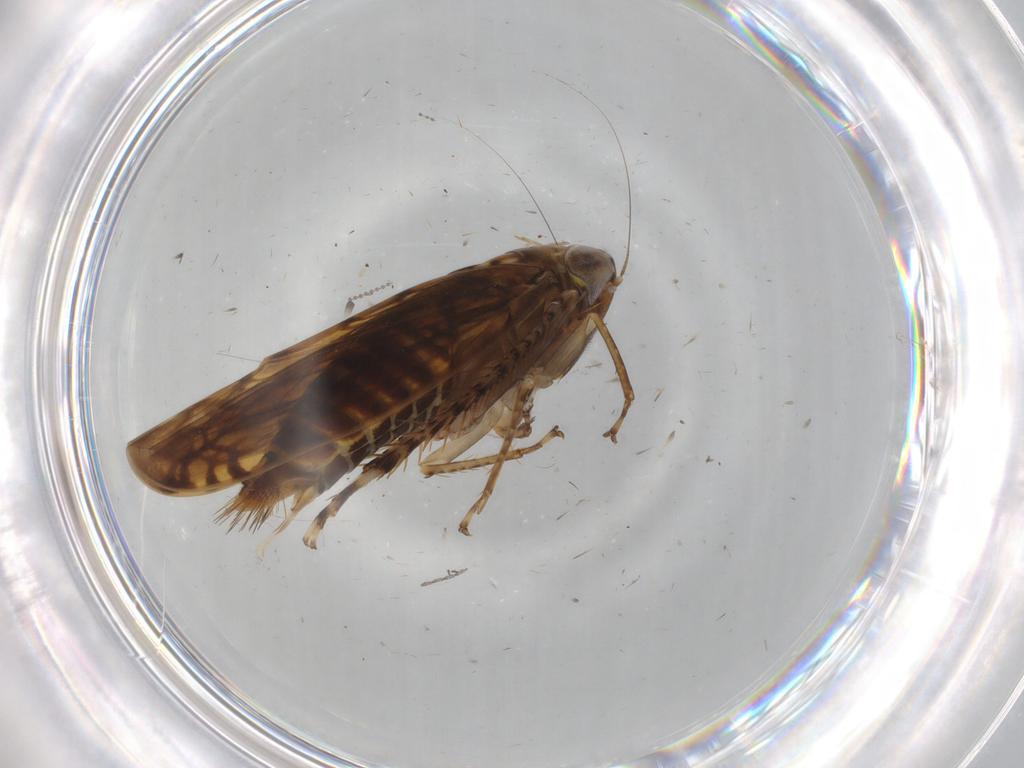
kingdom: Animalia
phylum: Arthropoda
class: Insecta
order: Hemiptera
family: Cicadellidae
